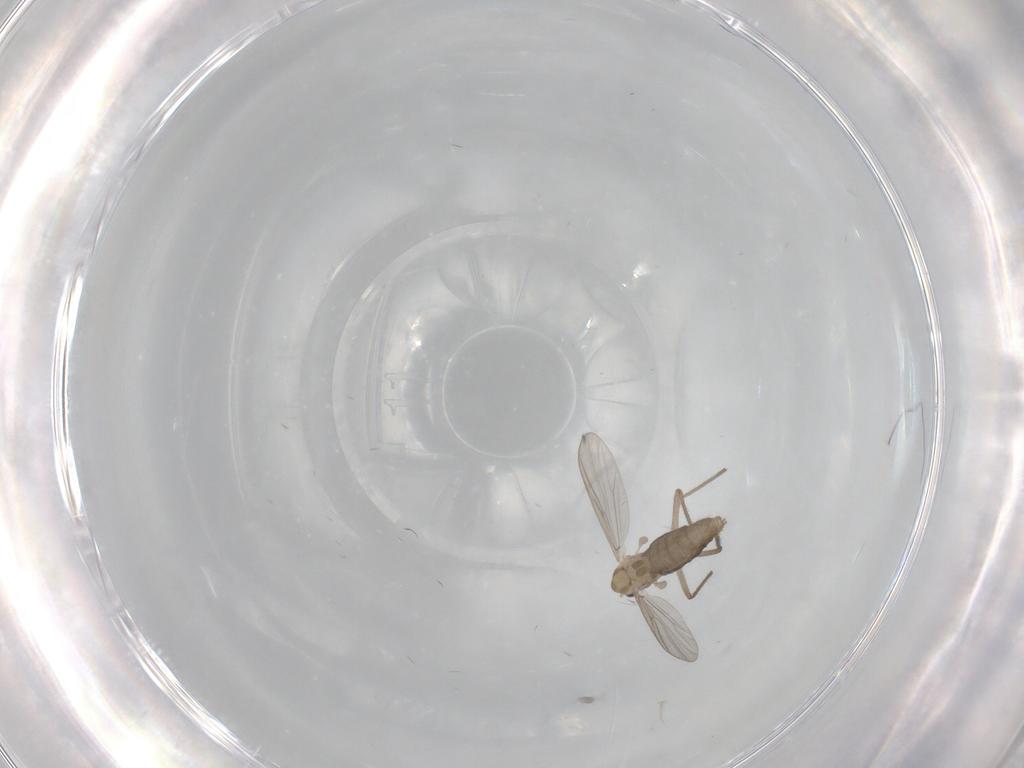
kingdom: Animalia
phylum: Arthropoda
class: Insecta
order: Diptera
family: Chironomidae
